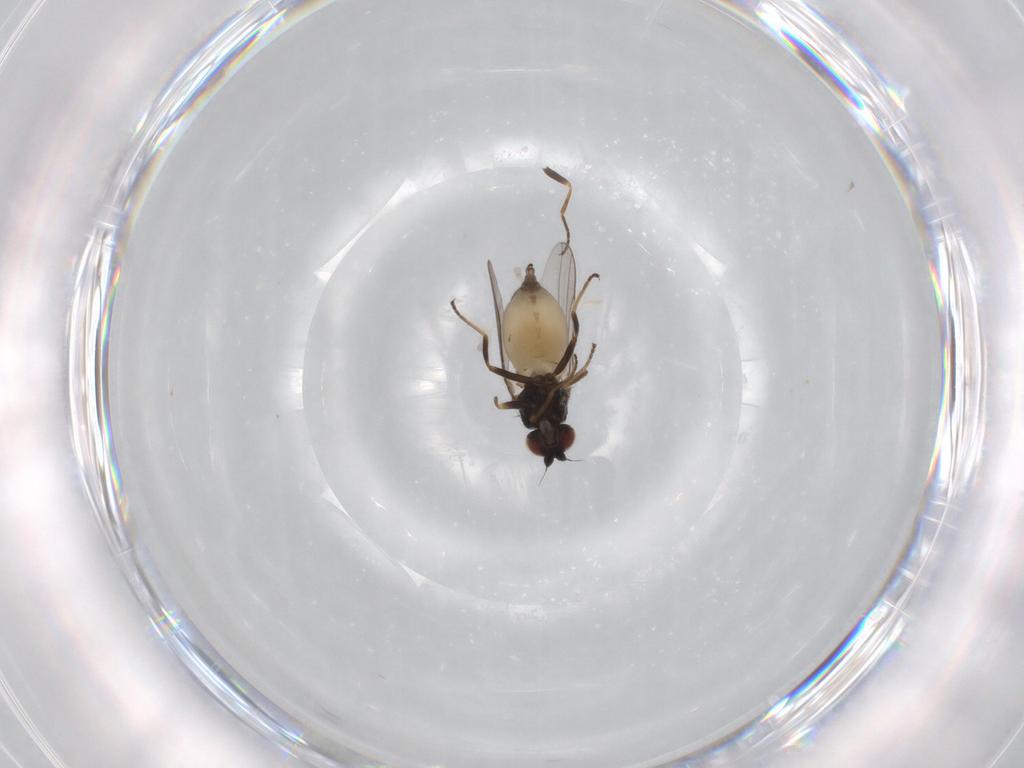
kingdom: Animalia
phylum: Arthropoda
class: Insecta
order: Diptera
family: Chloropidae
